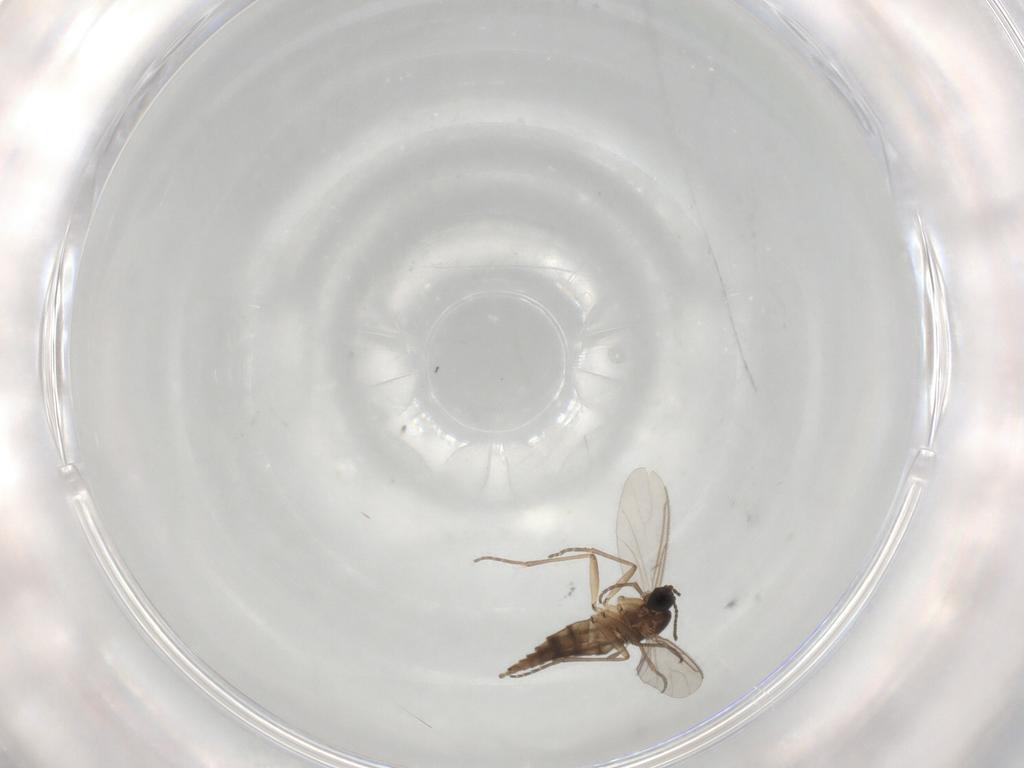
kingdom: Animalia
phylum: Arthropoda
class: Insecta
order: Diptera
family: Sciaridae
